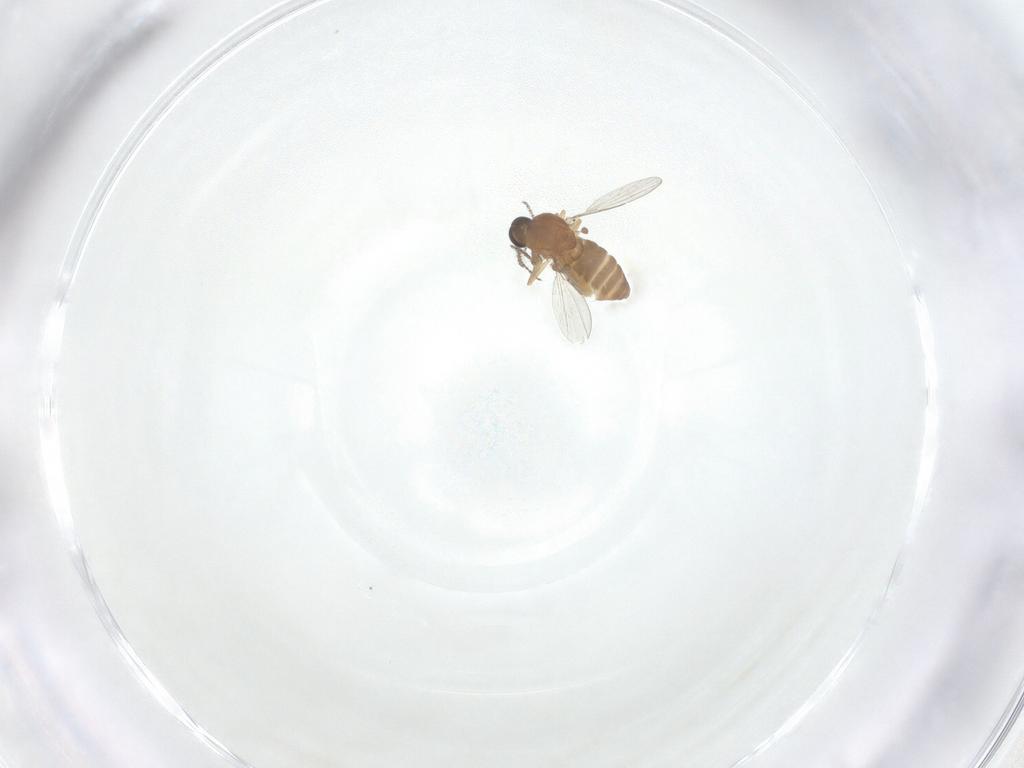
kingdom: Animalia
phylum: Arthropoda
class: Insecta
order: Diptera
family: Ceratopogonidae
